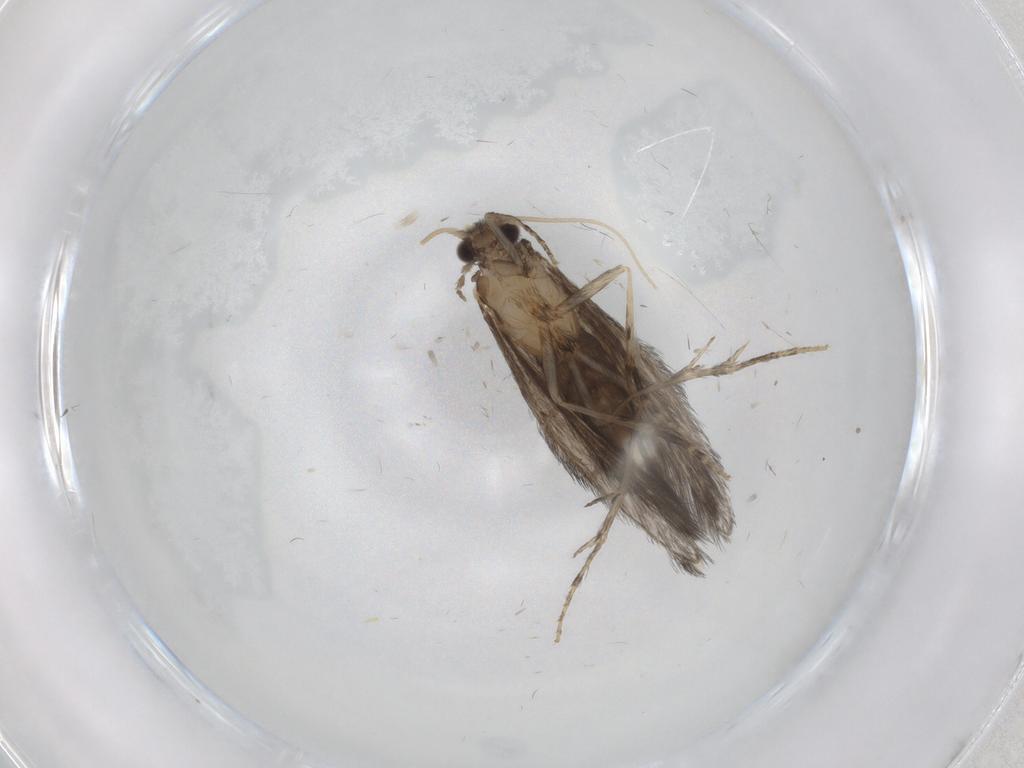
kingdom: Animalia
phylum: Arthropoda
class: Insecta
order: Trichoptera
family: Hydroptilidae
